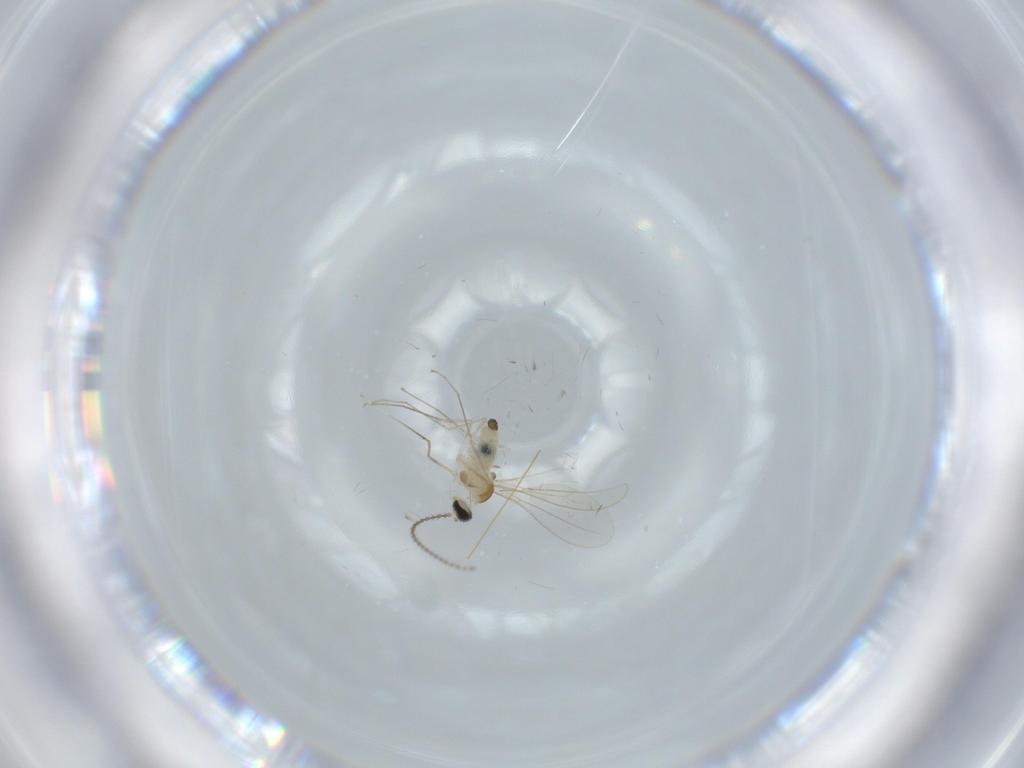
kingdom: Animalia
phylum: Arthropoda
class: Insecta
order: Diptera
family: Cecidomyiidae
